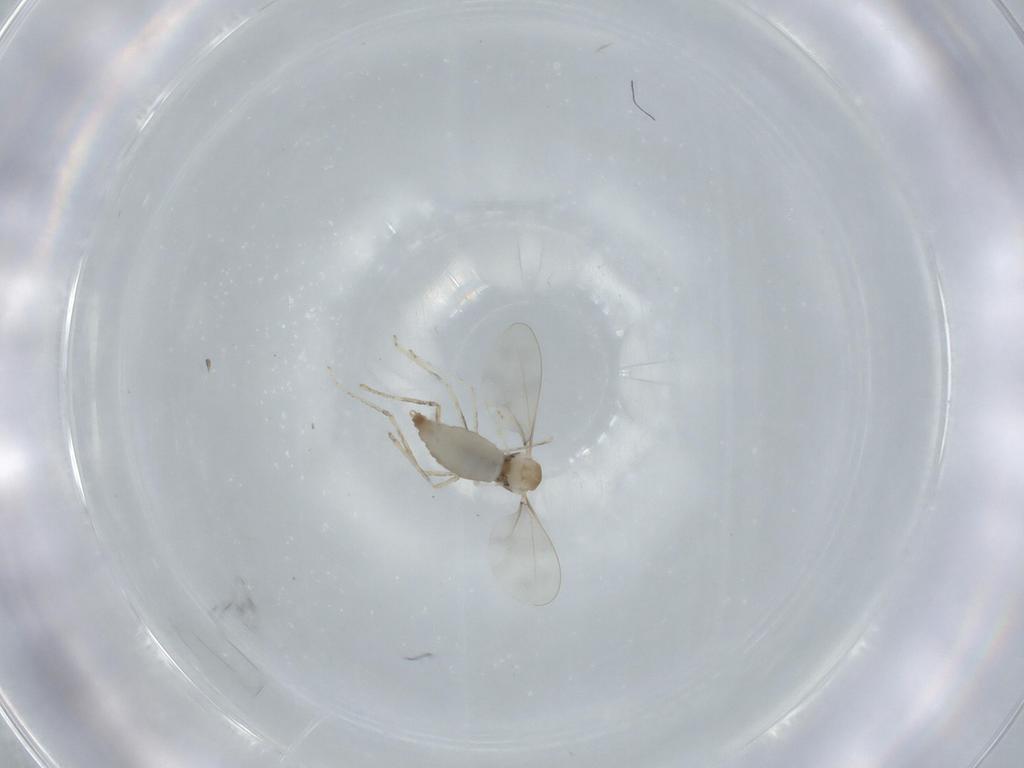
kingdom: Animalia
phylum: Arthropoda
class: Insecta
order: Diptera
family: Cecidomyiidae
